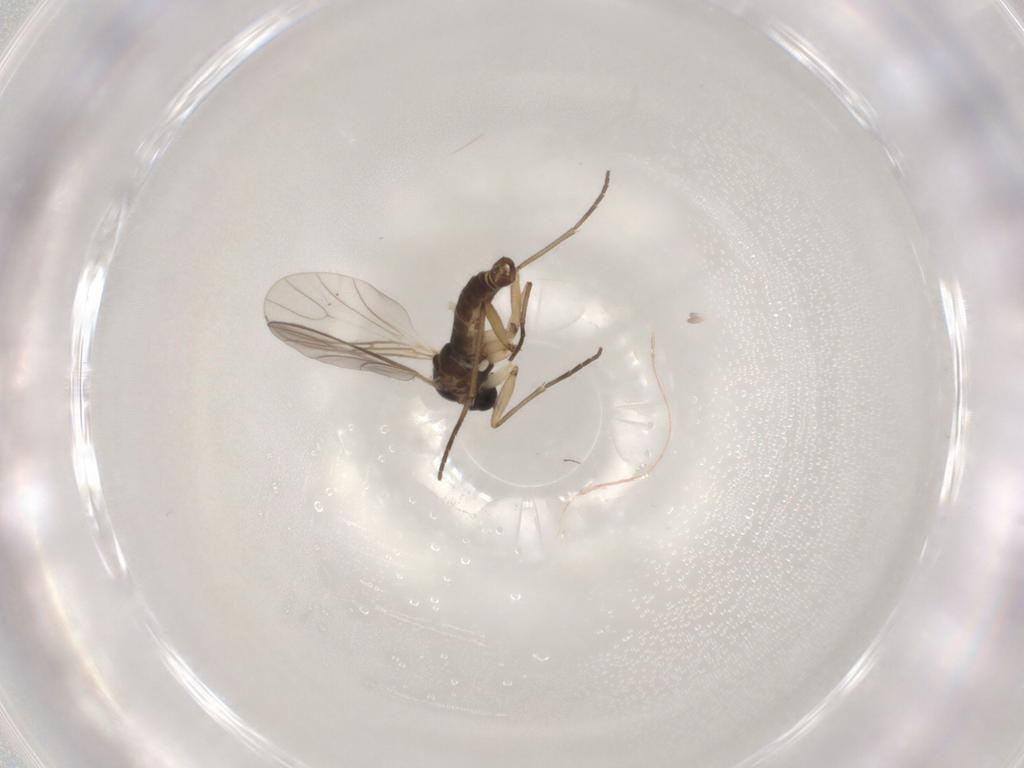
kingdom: Animalia
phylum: Arthropoda
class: Insecta
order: Diptera
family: Sciaridae
